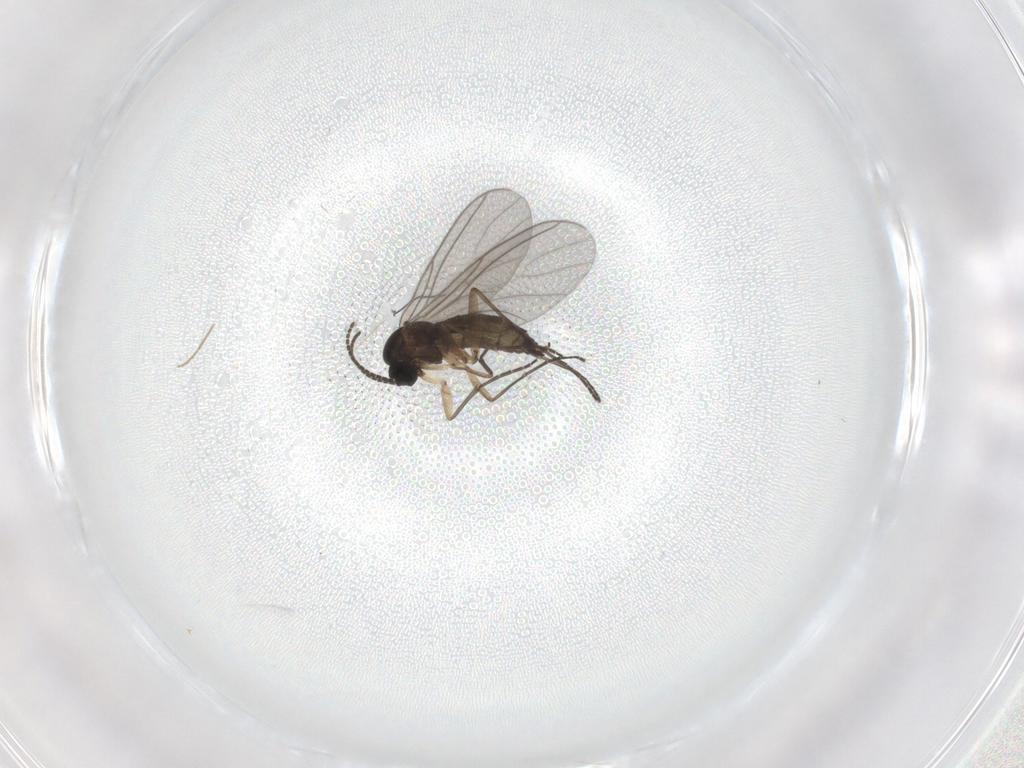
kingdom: Animalia
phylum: Arthropoda
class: Insecta
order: Diptera
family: Sciaridae
